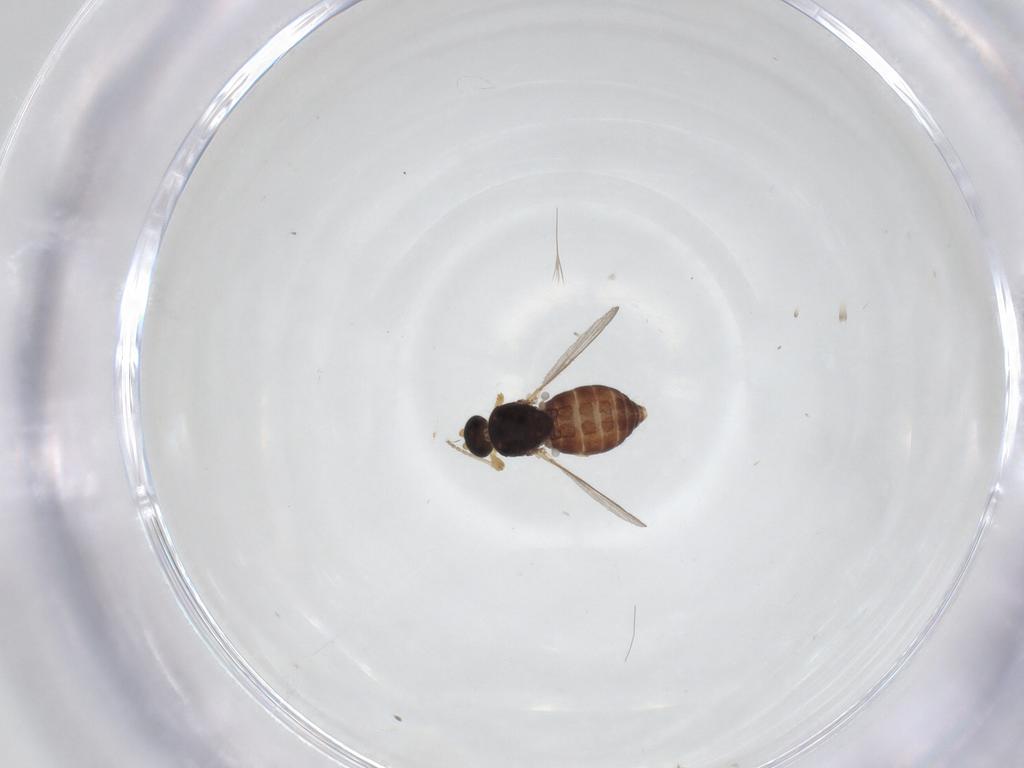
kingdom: Animalia
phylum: Arthropoda
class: Insecta
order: Diptera
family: Ceratopogonidae
